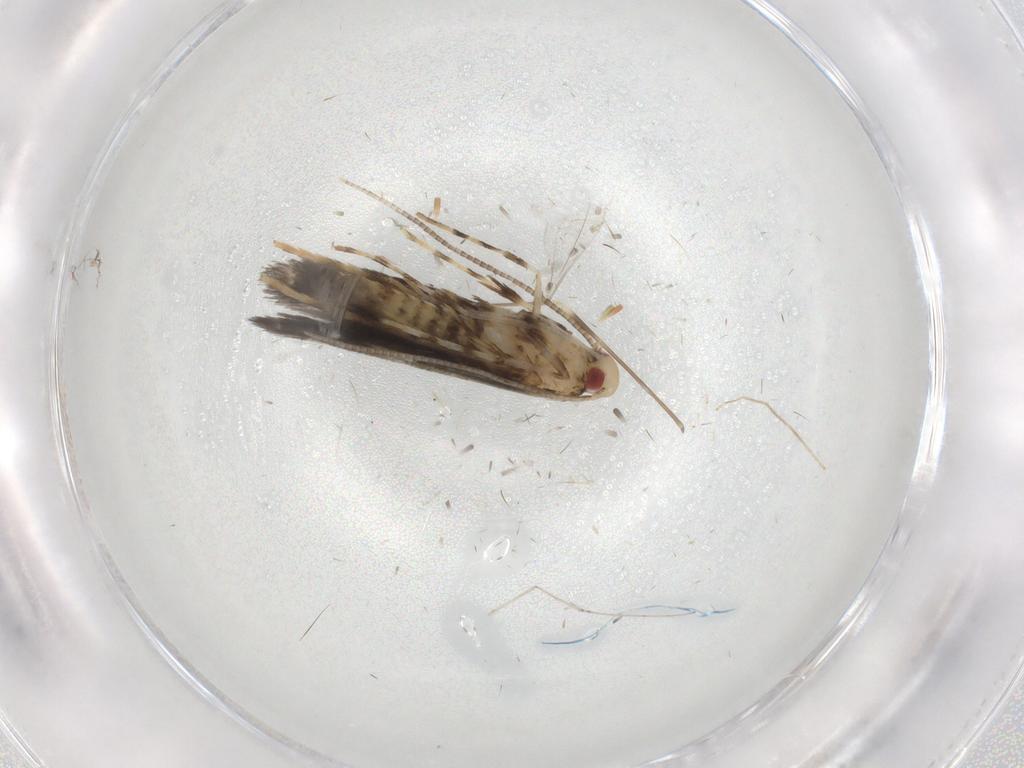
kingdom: Animalia
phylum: Arthropoda
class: Insecta
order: Lepidoptera
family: Gracillariidae
